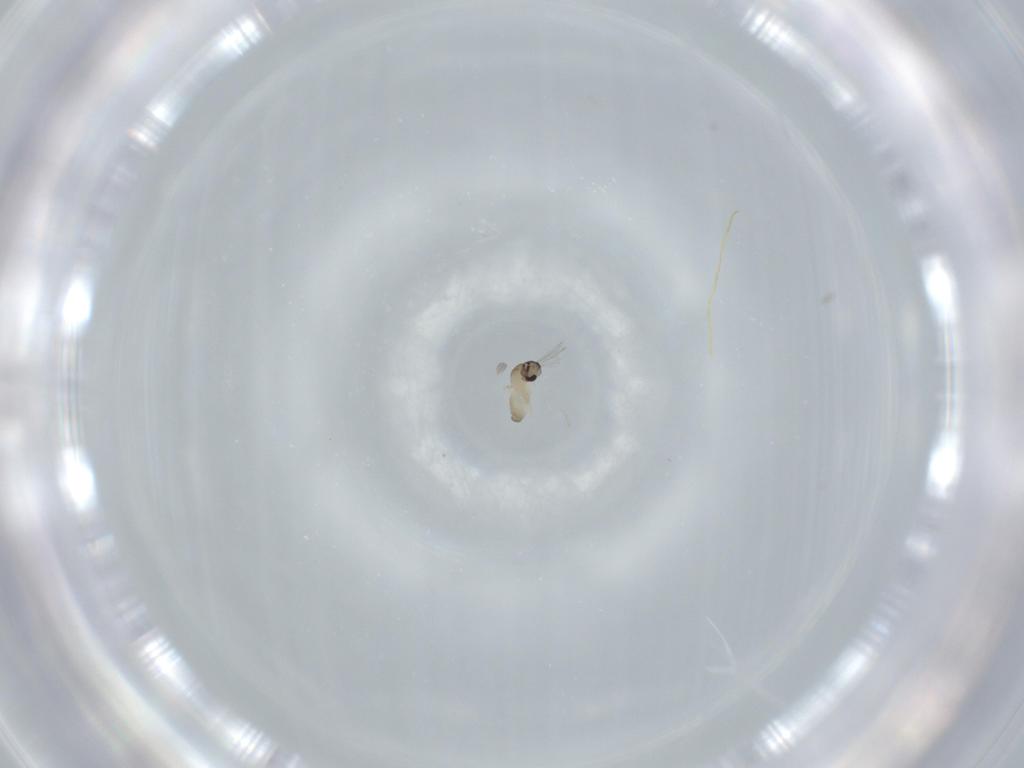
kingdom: Animalia
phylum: Arthropoda
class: Insecta
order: Diptera
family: Cecidomyiidae
